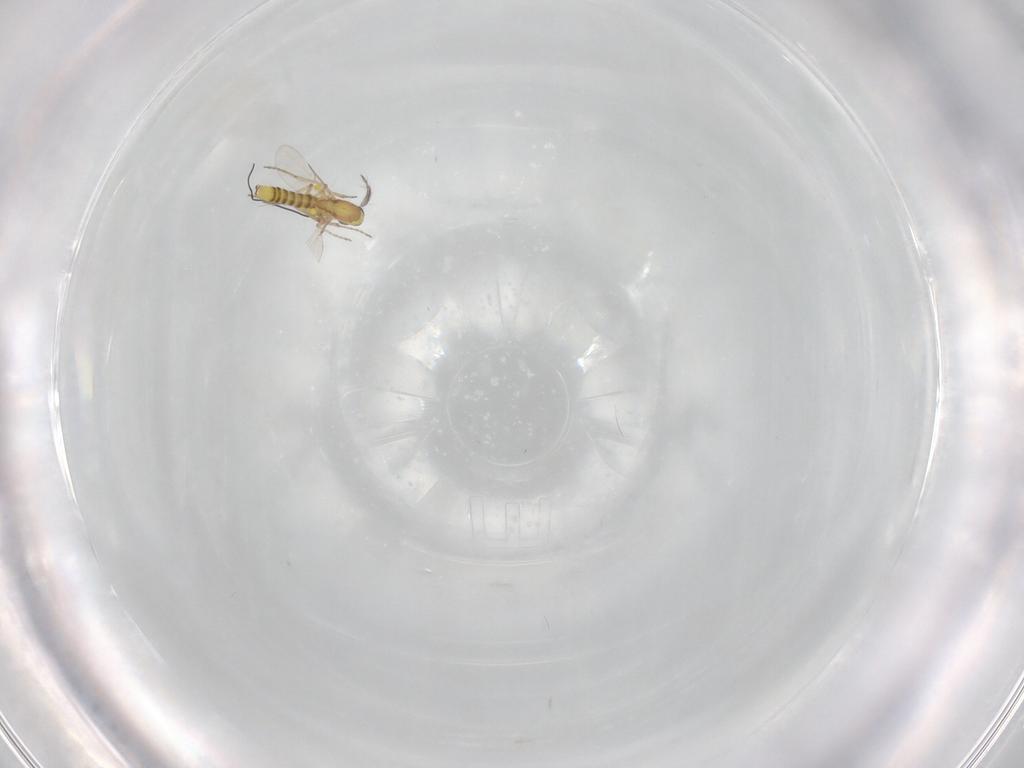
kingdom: Animalia
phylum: Arthropoda
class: Insecta
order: Diptera
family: Ceratopogonidae
